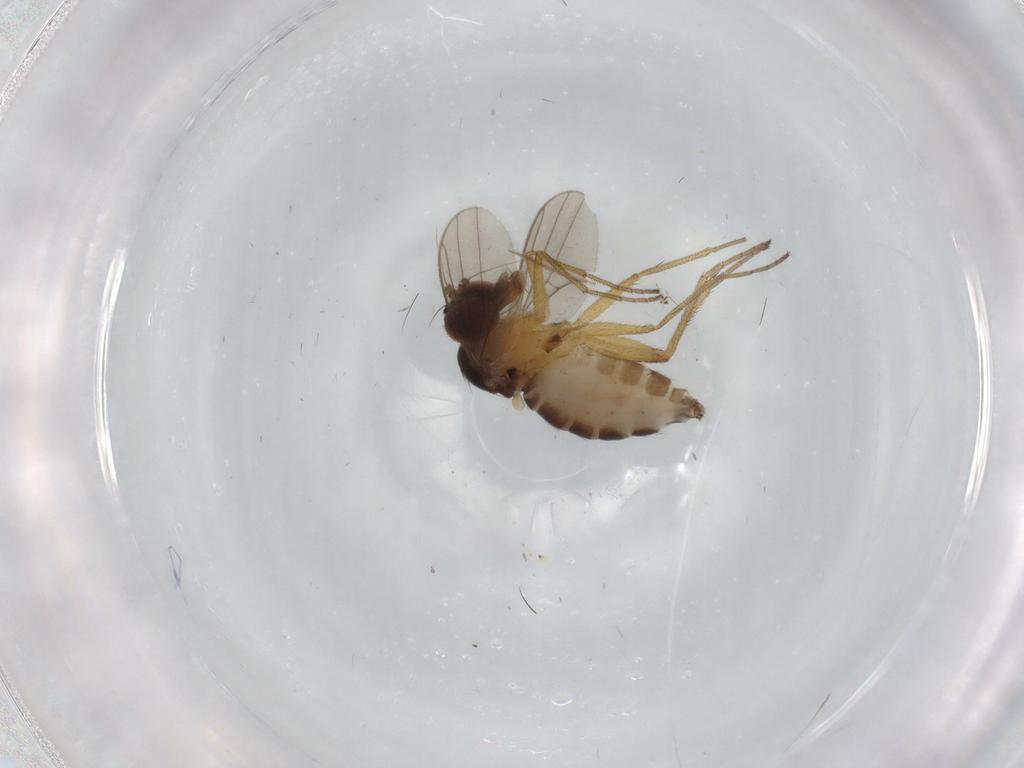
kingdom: Animalia
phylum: Arthropoda
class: Insecta
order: Diptera
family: Dolichopodidae
